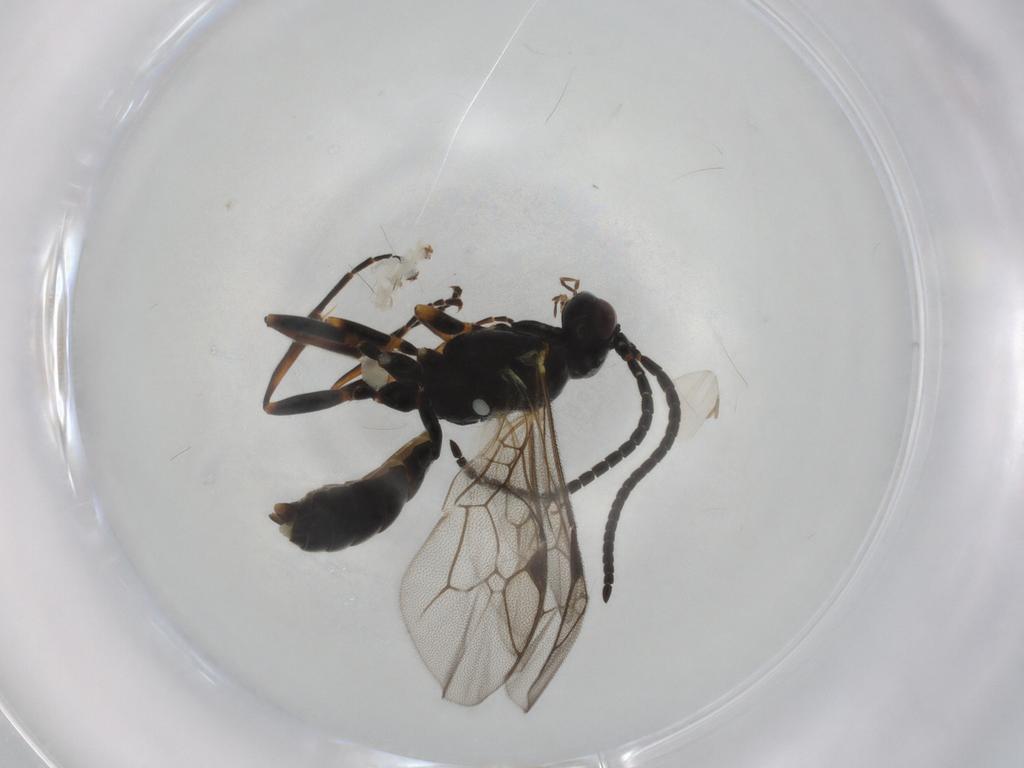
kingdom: Animalia
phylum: Arthropoda
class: Insecta
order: Hymenoptera
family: Ichneumonidae
